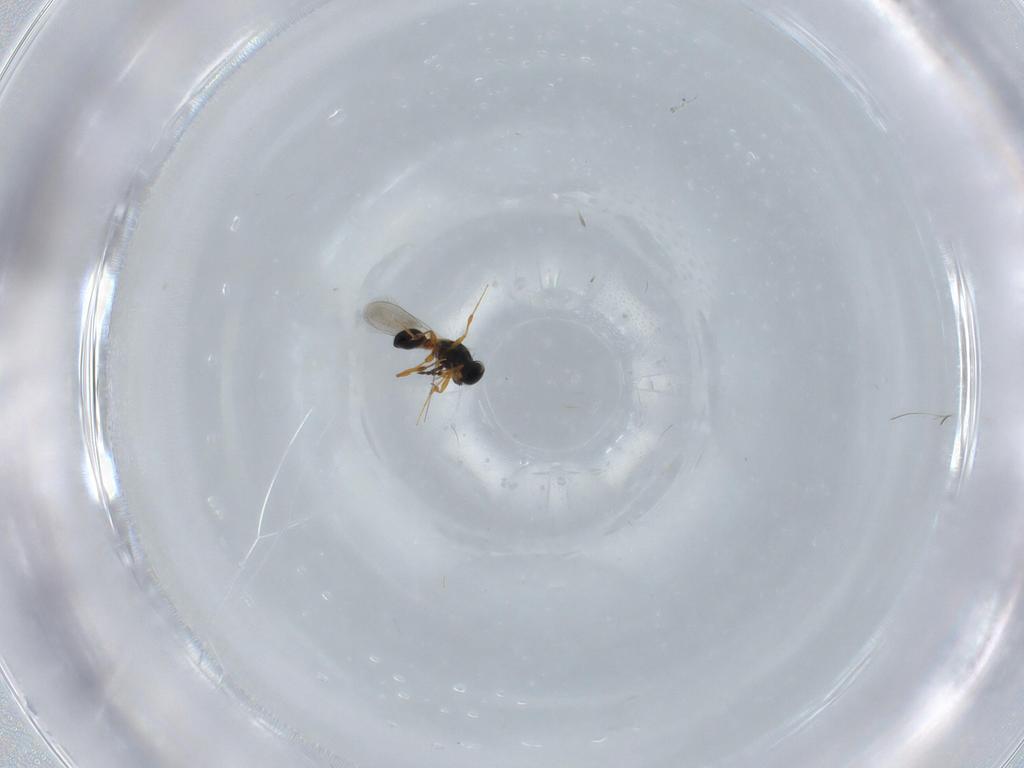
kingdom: Animalia
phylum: Arthropoda
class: Insecta
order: Hymenoptera
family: Platygastridae
